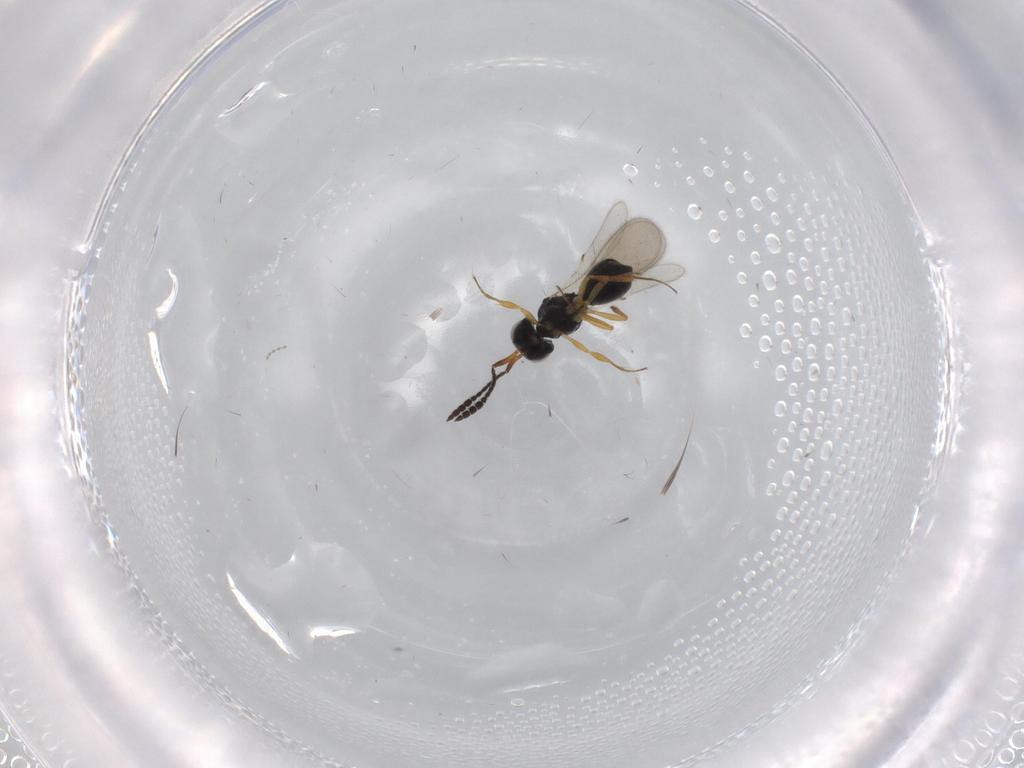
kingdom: Animalia
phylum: Arthropoda
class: Insecta
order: Hymenoptera
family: Scelionidae
